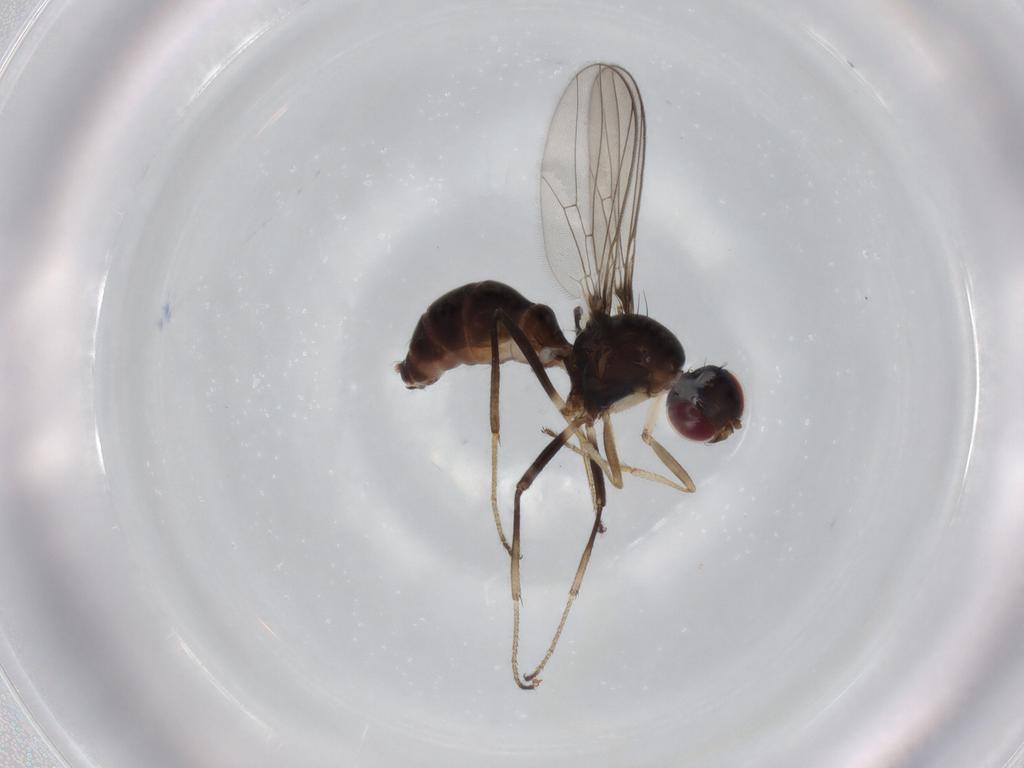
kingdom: Animalia
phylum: Arthropoda
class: Insecta
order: Diptera
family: Sepsidae
